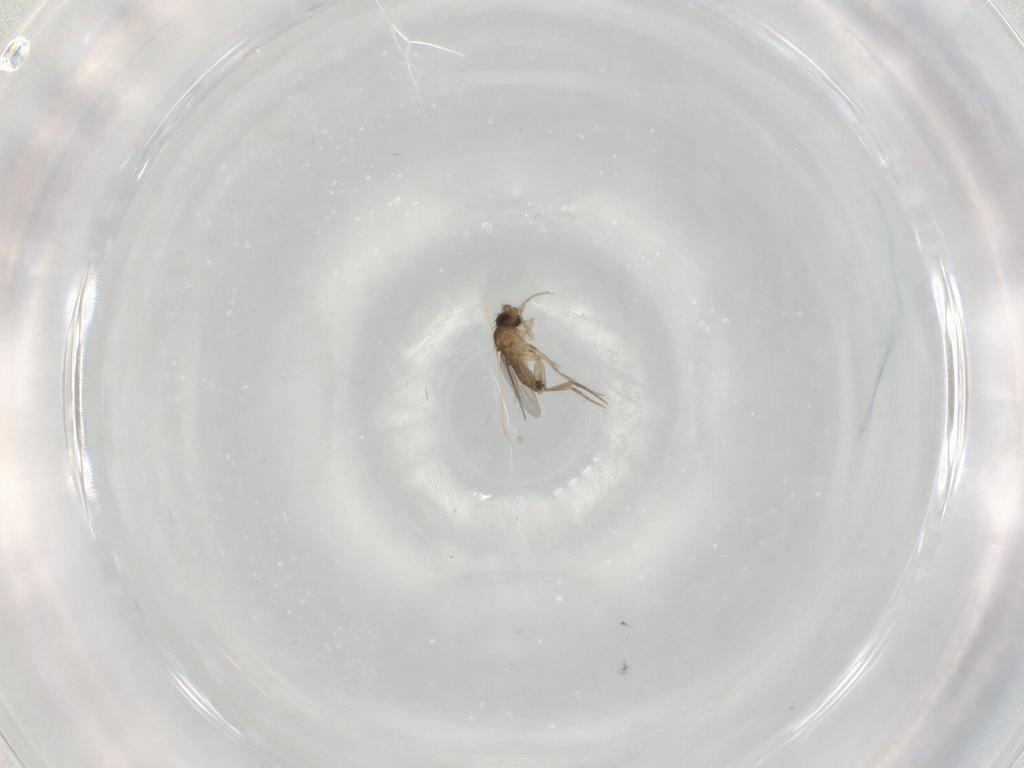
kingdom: Animalia
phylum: Arthropoda
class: Insecta
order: Diptera
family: Phoridae
